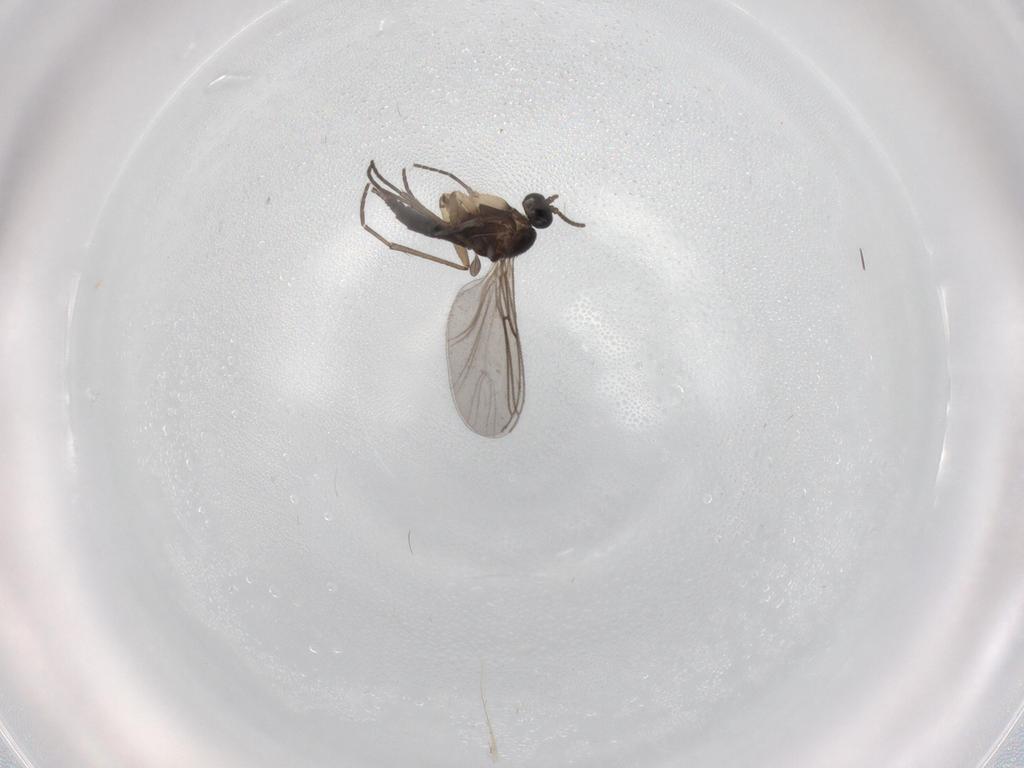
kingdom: Animalia
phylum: Arthropoda
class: Insecta
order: Diptera
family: Sciaridae
